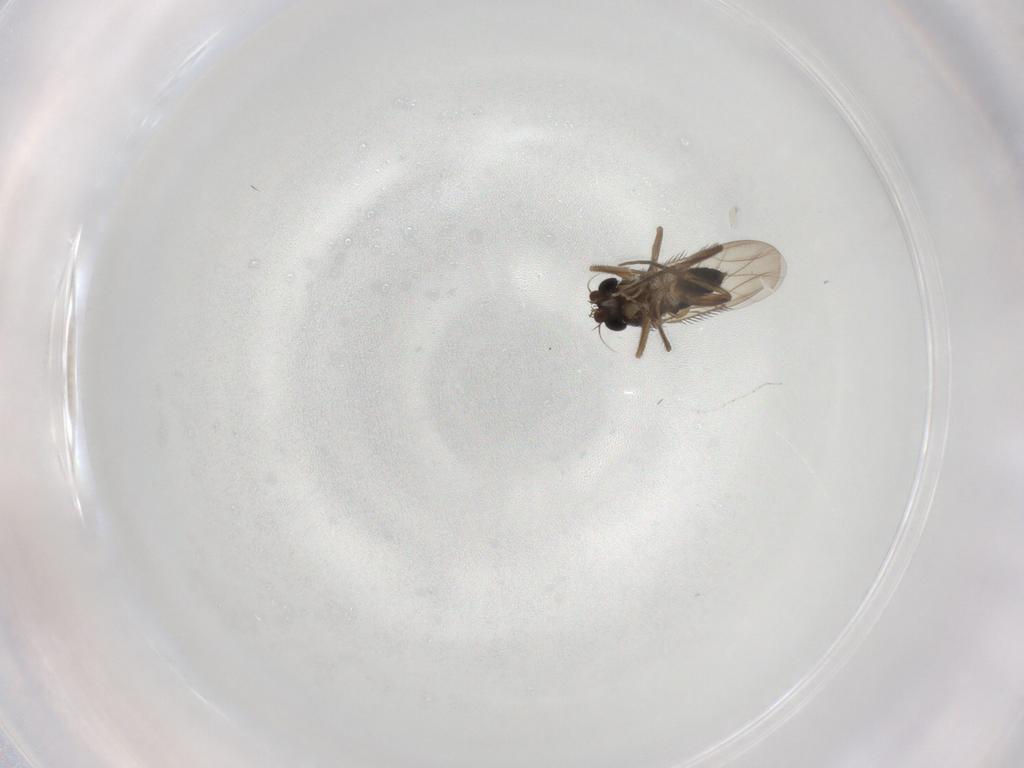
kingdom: Animalia
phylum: Arthropoda
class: Insecta
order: Diptera
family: Phoridae
